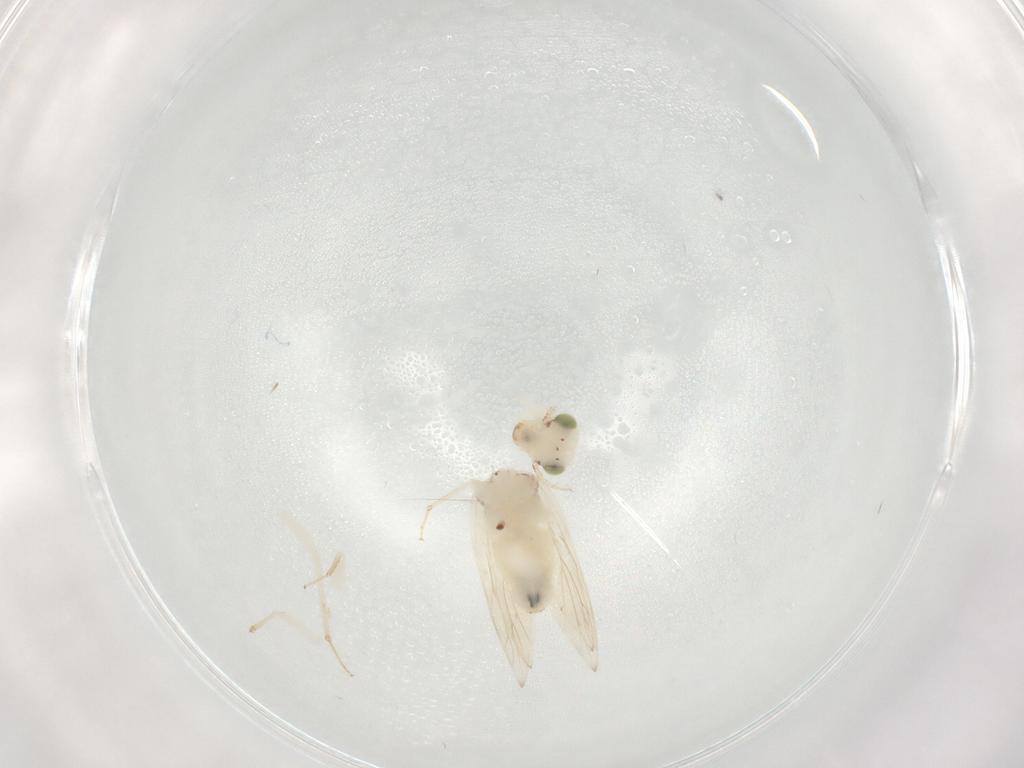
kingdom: Animalia
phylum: Arthropoda
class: Insecta
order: Psocodea
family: Lepidopsocidae
